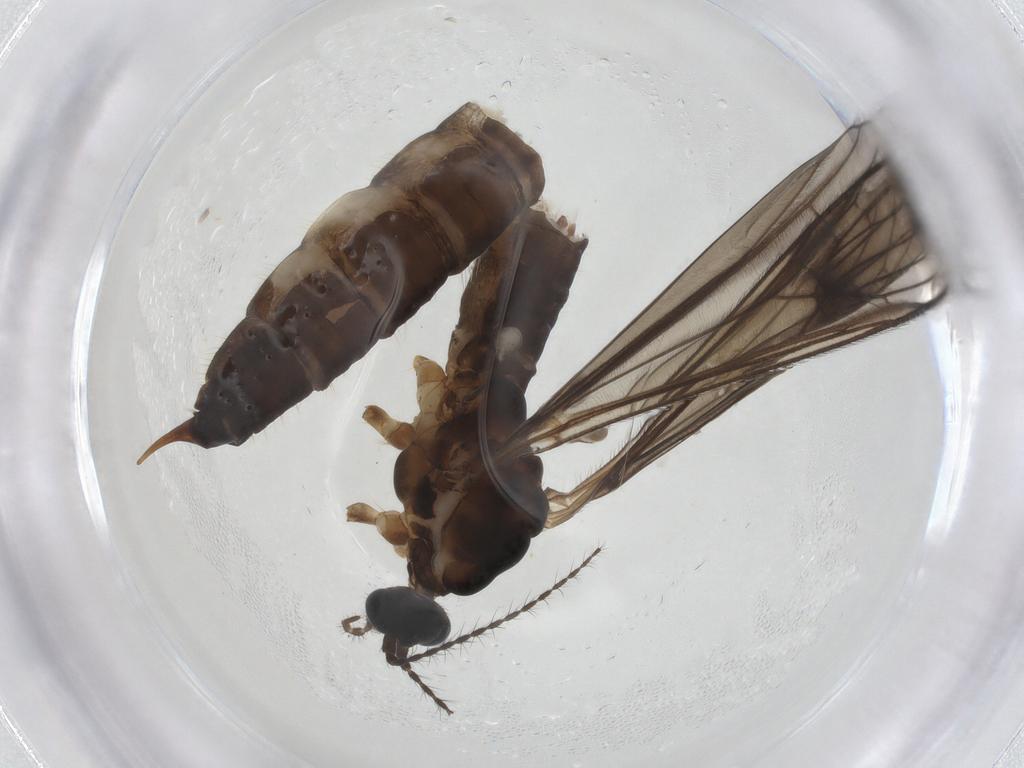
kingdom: Animalia
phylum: Arthropoda
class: Insecta
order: Diptera
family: Limoniidae
